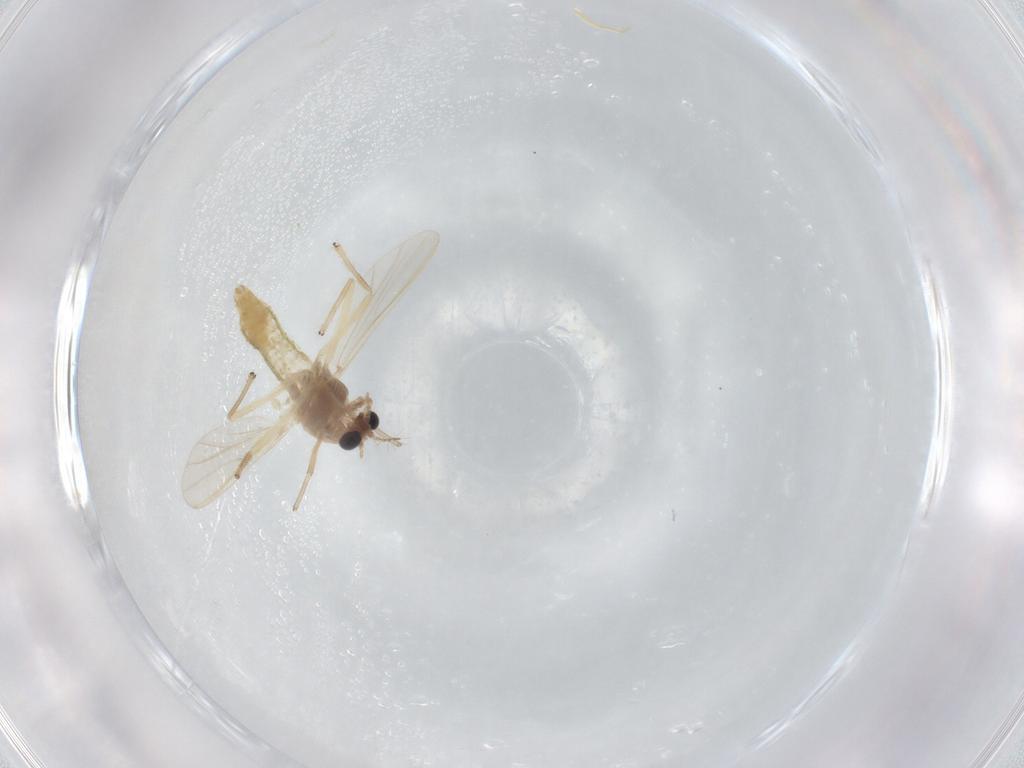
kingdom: Animalia
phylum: Arthropoda
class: Insecta
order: Diptera
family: Chironomidae
